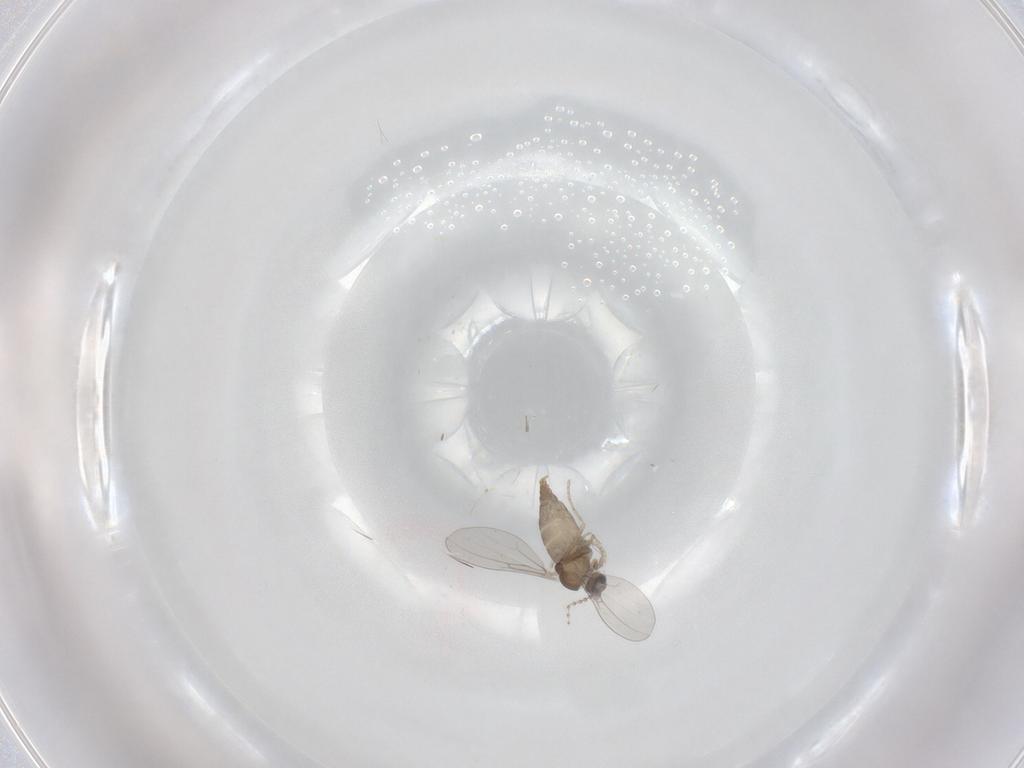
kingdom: Animalia
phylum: Arthropoda
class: Insecta
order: Diptera
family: Cecidomyiidae
